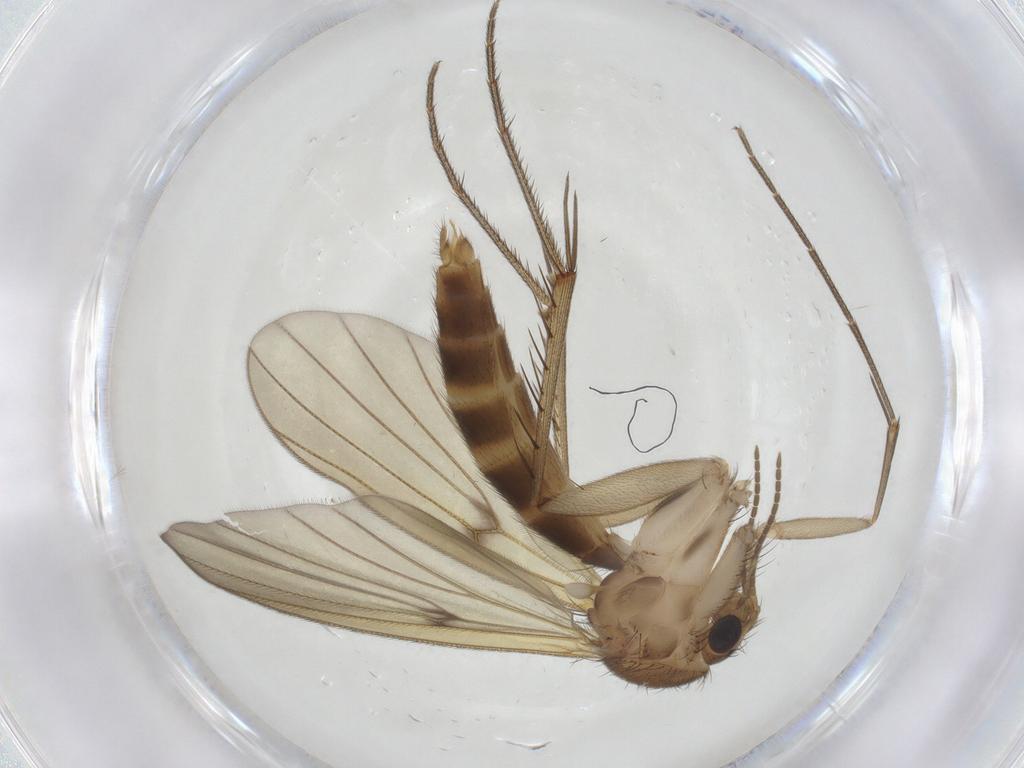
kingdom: Animalia
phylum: Arthropoda
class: Insecta
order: Diptera
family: Mycetophilidae
